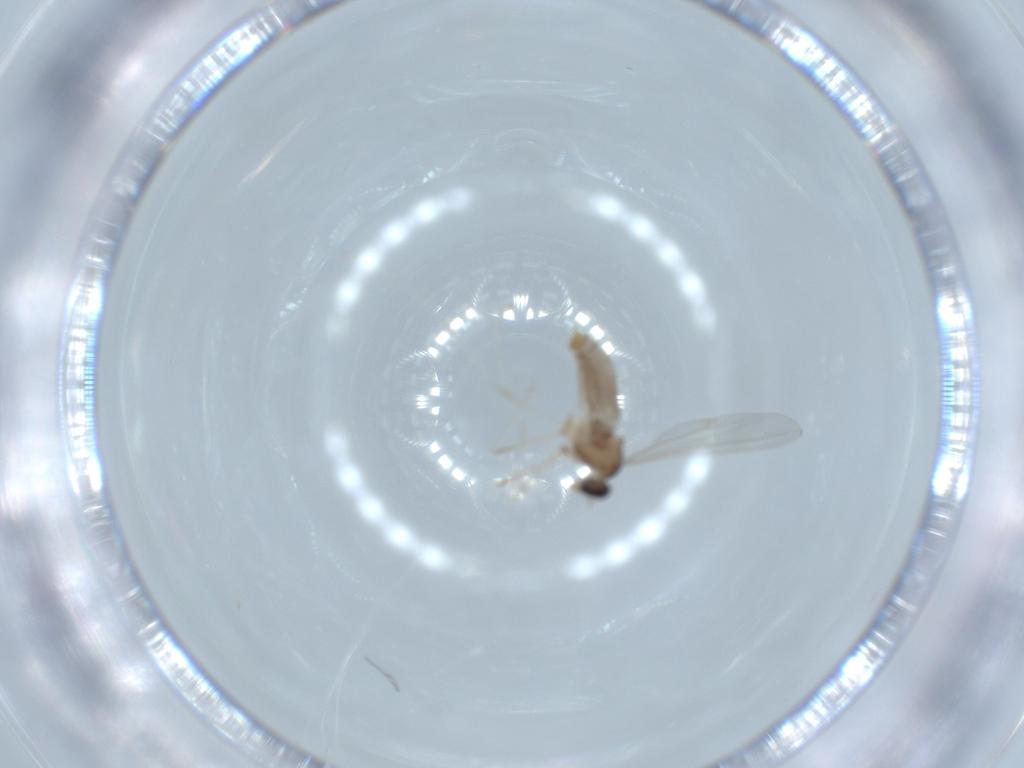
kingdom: Animalia
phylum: Arthropoda
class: Insecta
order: Diptera
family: Cecidomyiidae
